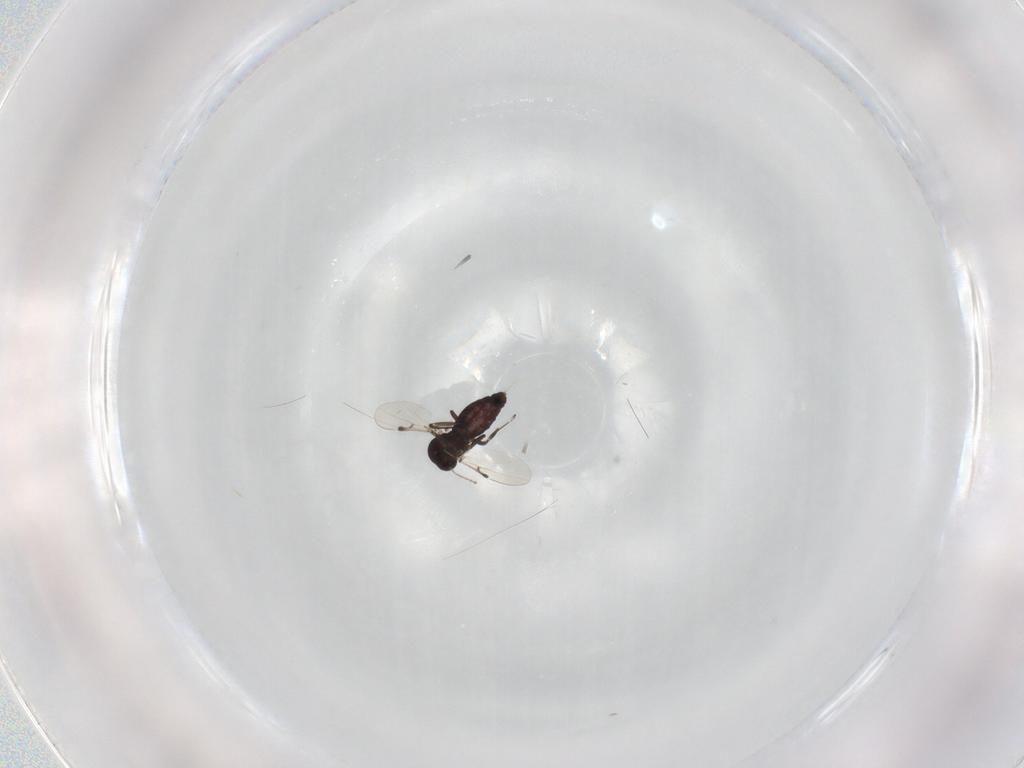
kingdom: Animalia
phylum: Arthropoda
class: Insecta
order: Diptera
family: Ceratopogonidae
